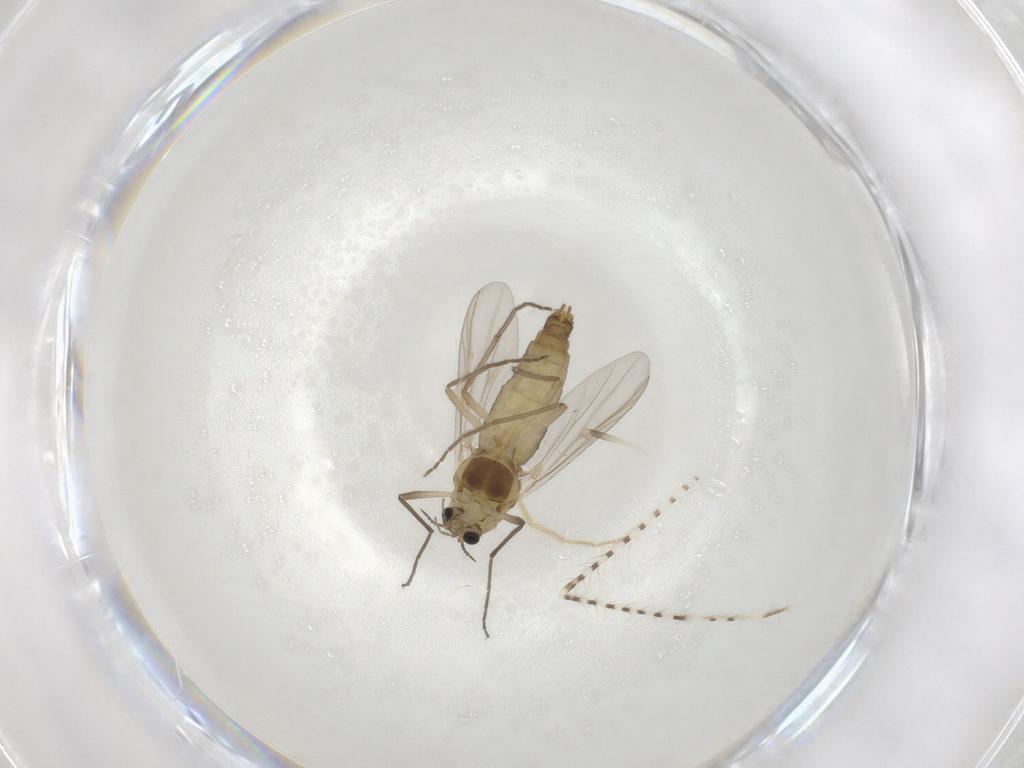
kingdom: Animalia
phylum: Arthropoda
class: Insecta
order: Diptera
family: Chironomidae
